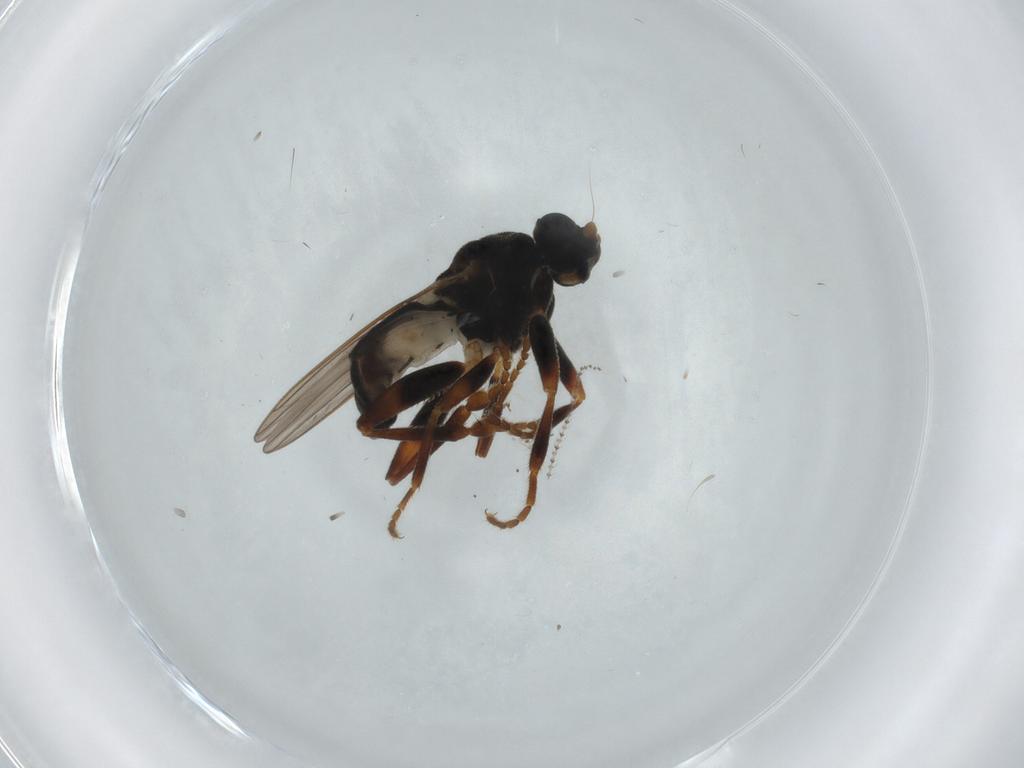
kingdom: Animalia
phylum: Arthropoda
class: Insecta
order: Diptera
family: Sphaeroceridae
